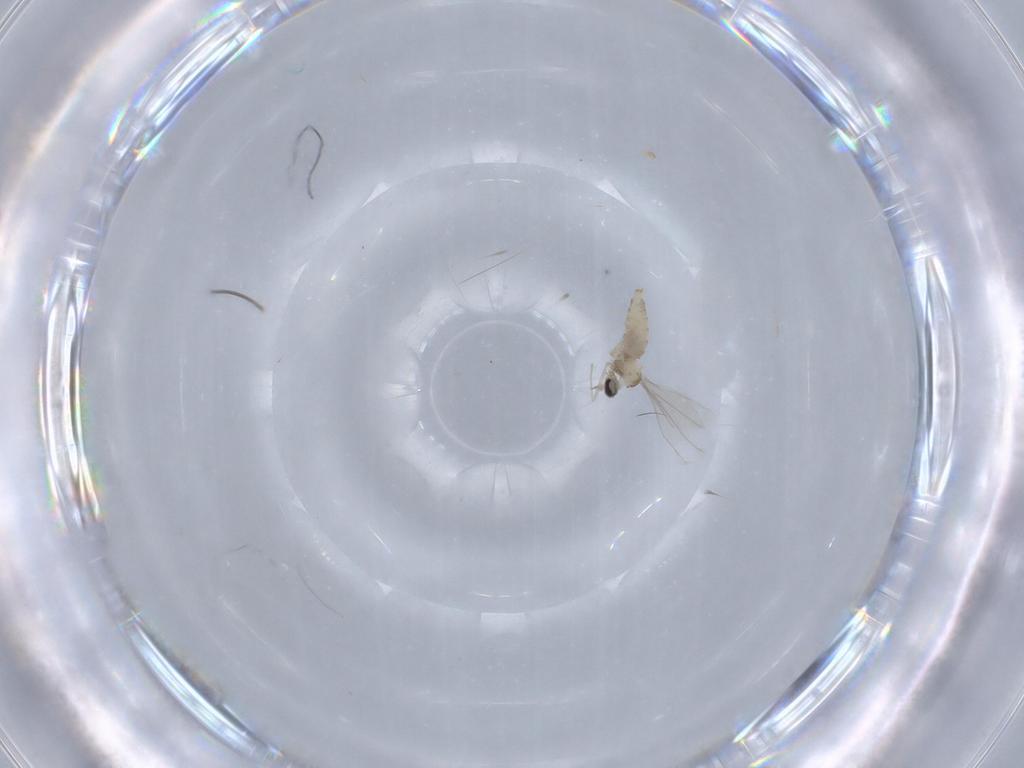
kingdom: Animalia
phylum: Arthropoda
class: Insecta
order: Diptera
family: Cecidomyiidae
